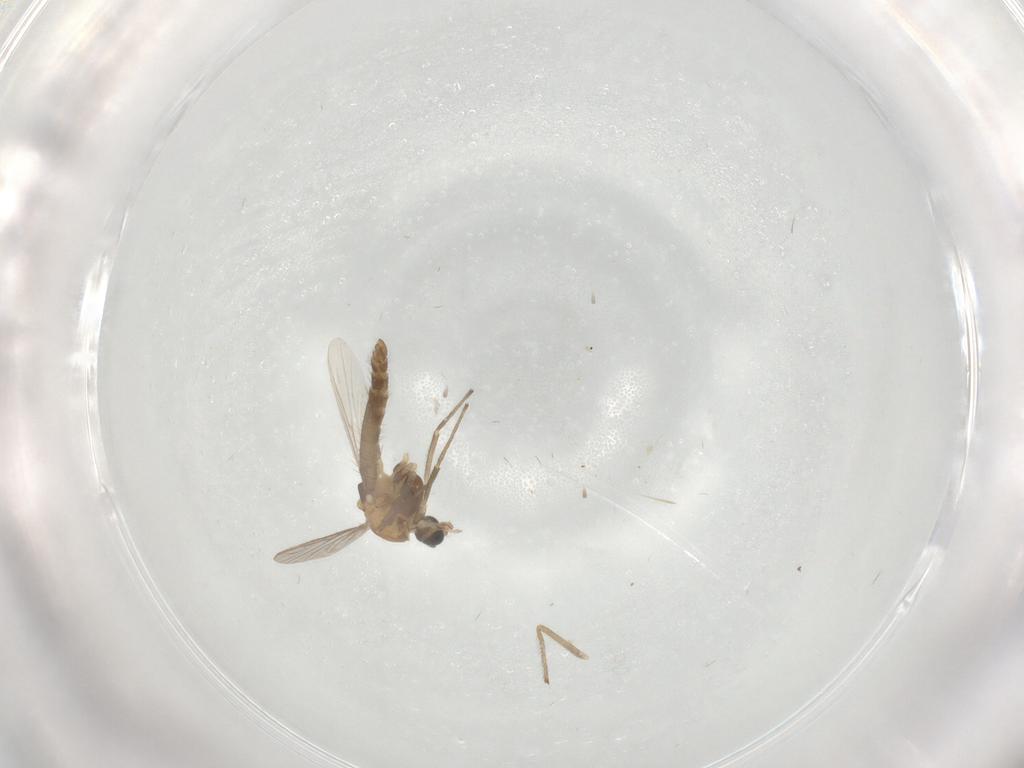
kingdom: Animalia
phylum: Arthropoda
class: Insecta
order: Diptera
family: Chironomidae
